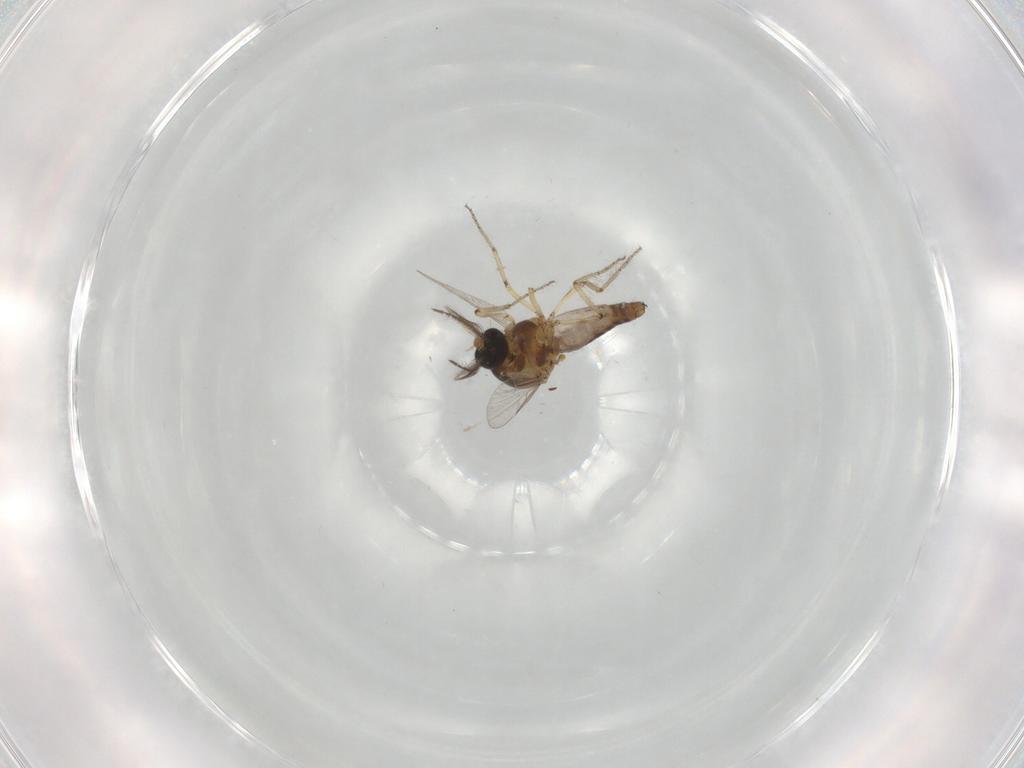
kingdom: Animalia
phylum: Arthropoda
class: Insecta
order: Diptera
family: Ceratopogonidae
